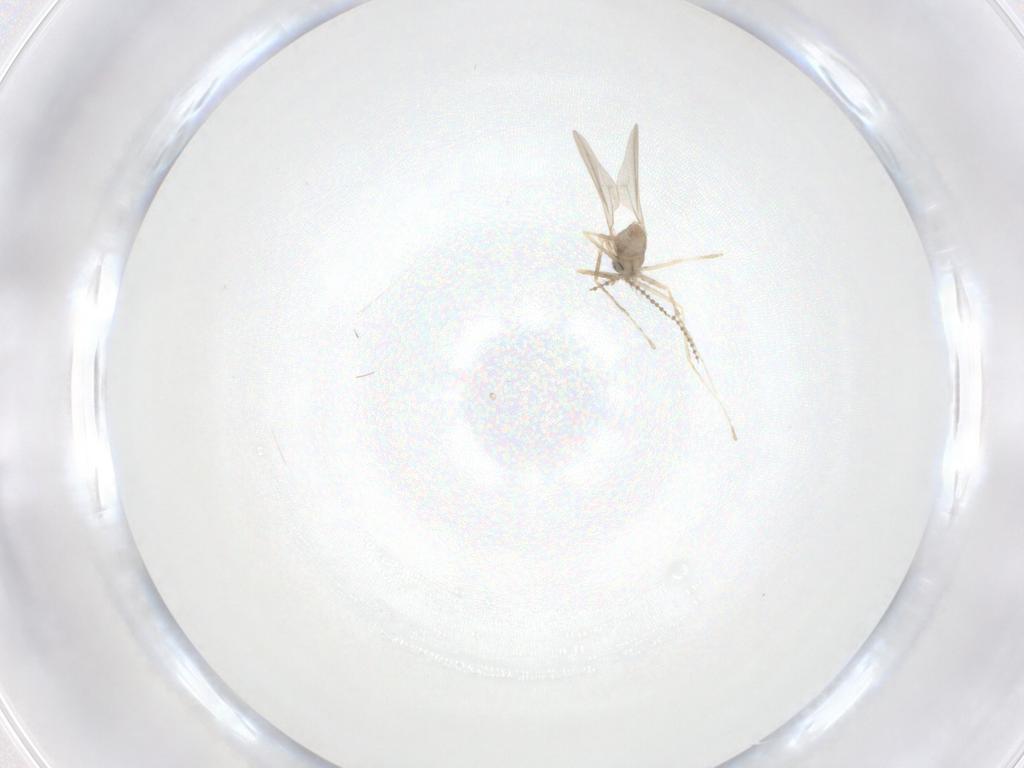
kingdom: Animalia
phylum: Arthropoda
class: Insecta
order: Diptera
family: Cecidomyiidae
